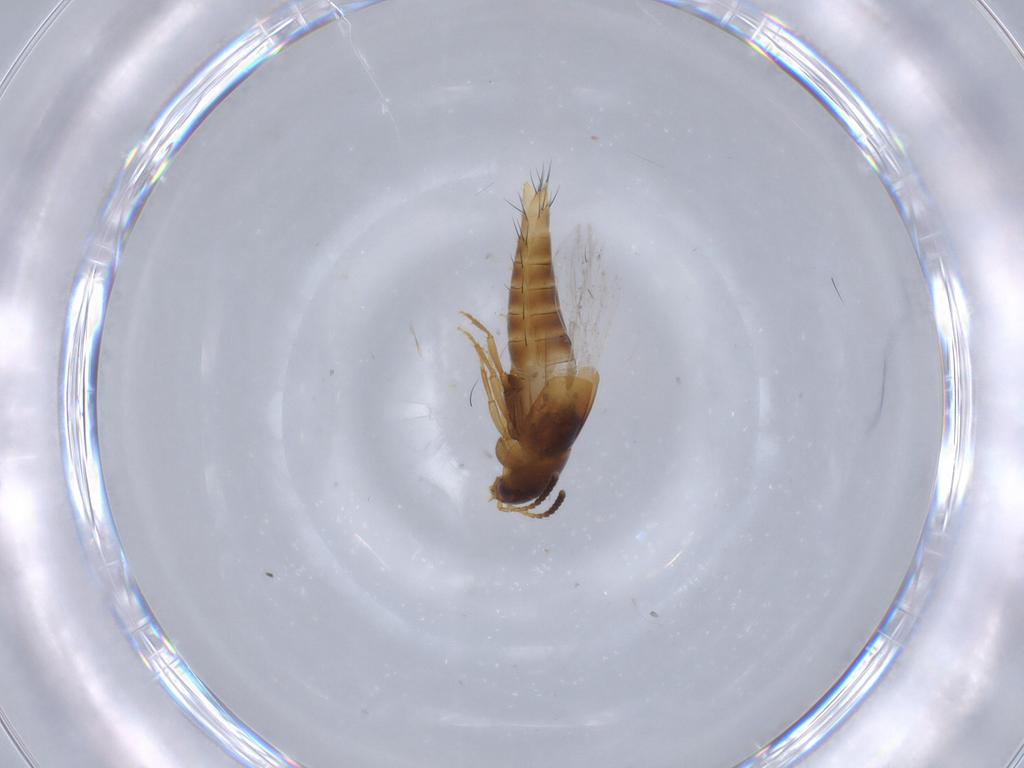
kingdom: Animalia
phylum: Arthropoda
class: Insecta
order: Coleoptera
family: Staphylinidae
